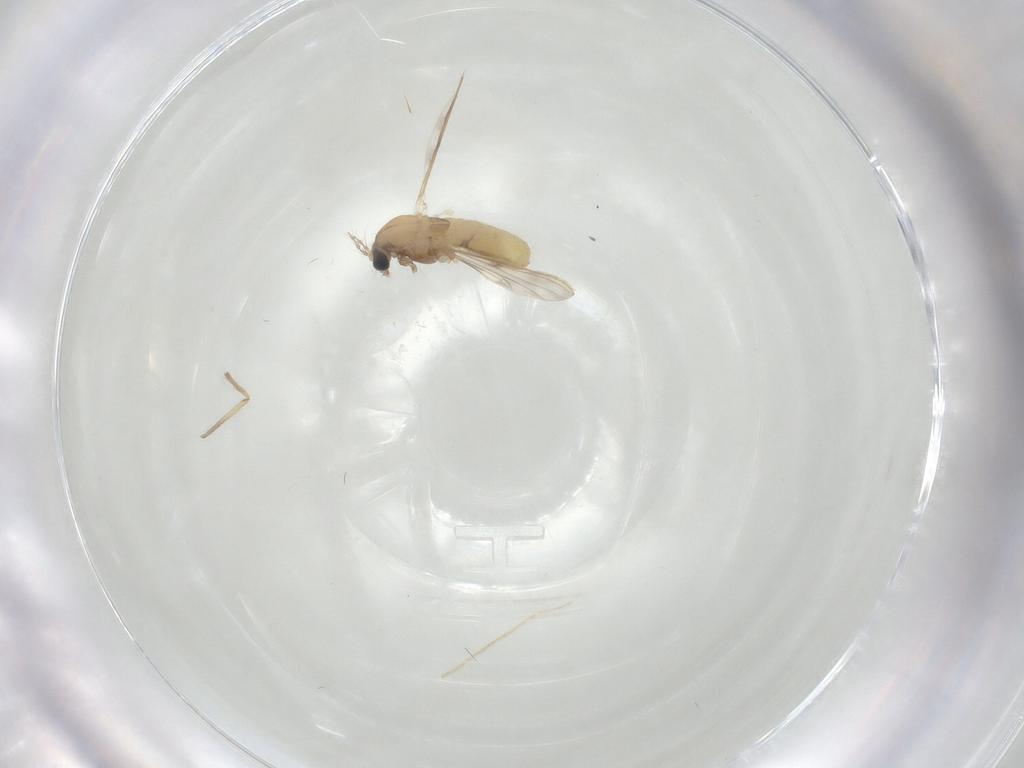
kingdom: Animalia
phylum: Arthropoda
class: Insecta
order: Diptera
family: Chironomidae
